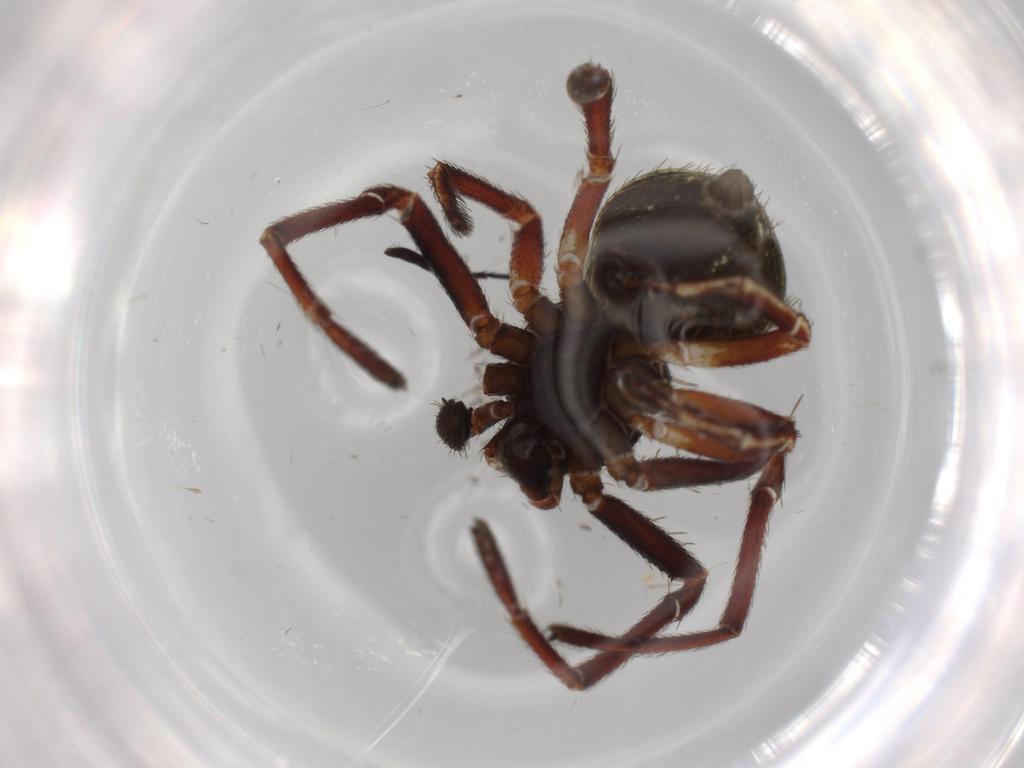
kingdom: Animalia
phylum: Arthropoda
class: Arachnida
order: Araneae
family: Thomisidae
